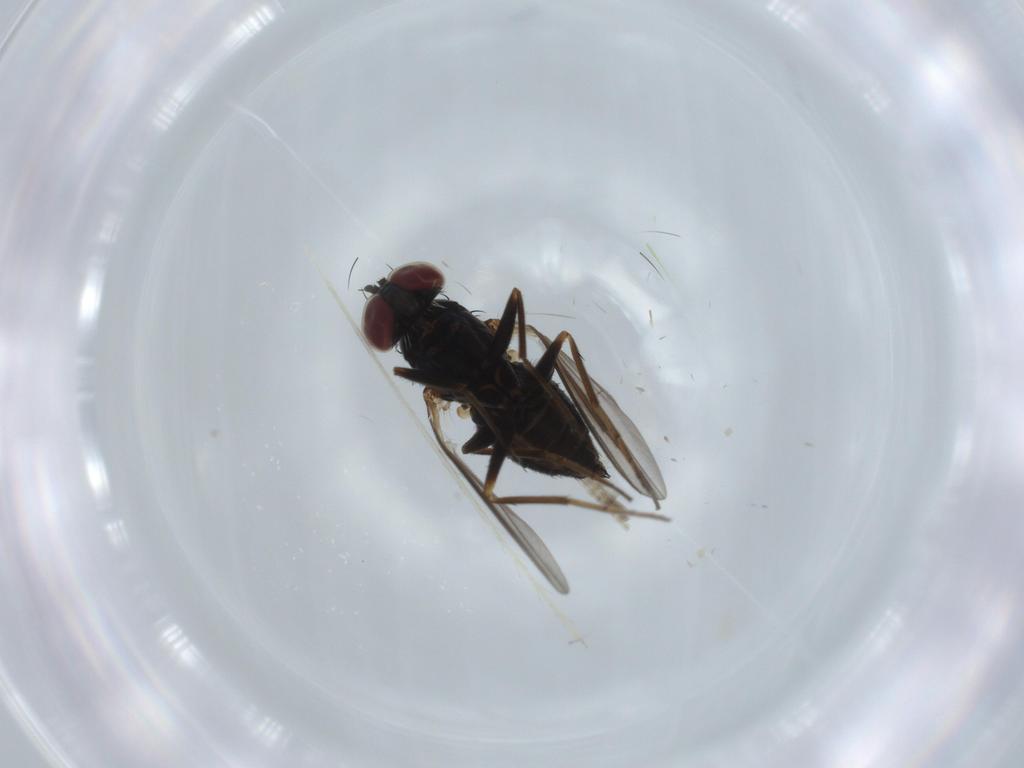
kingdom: Animalia
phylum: Arthropoda
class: Insecta
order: Diptera
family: Dolichopodidae
